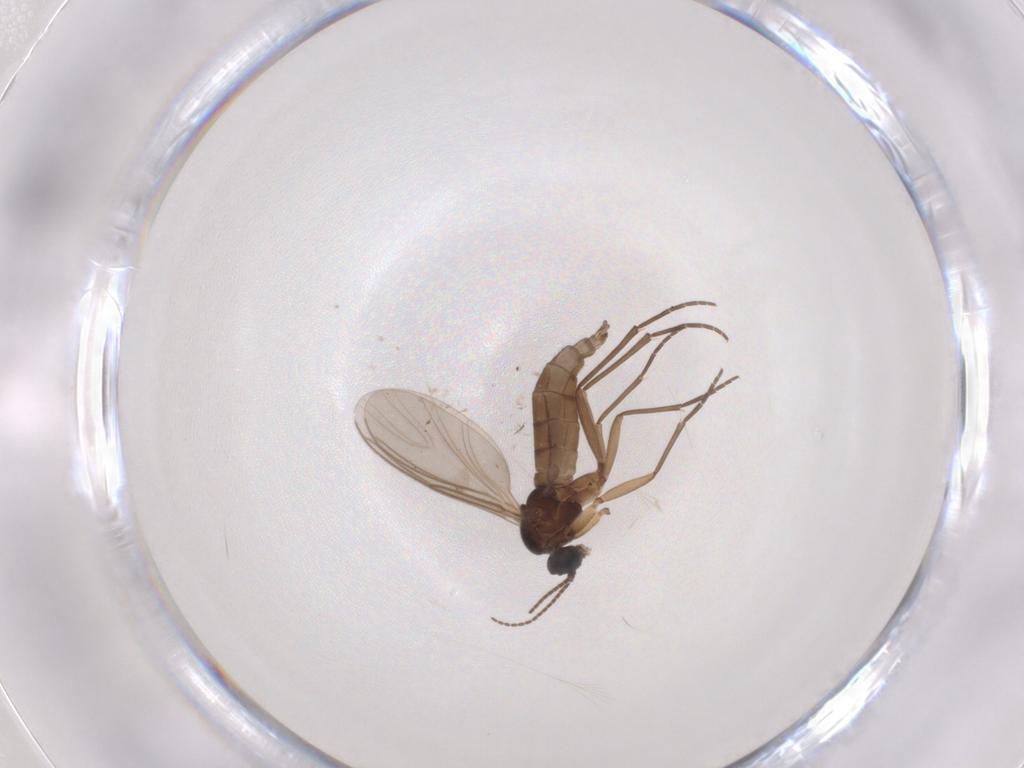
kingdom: Animalia
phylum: Arthropoda
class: Insecta
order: Diptera
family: Sciaridae
